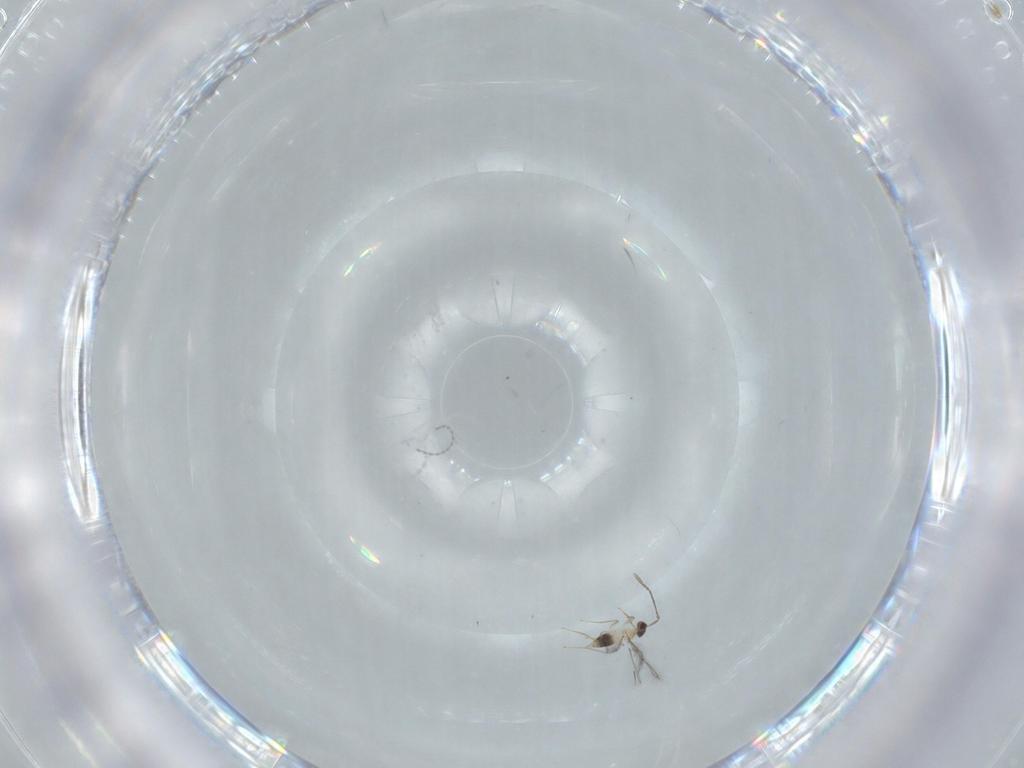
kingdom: Animalia
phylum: Arthropoda
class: Insecta
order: Hymenoptera
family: Mymaridae
